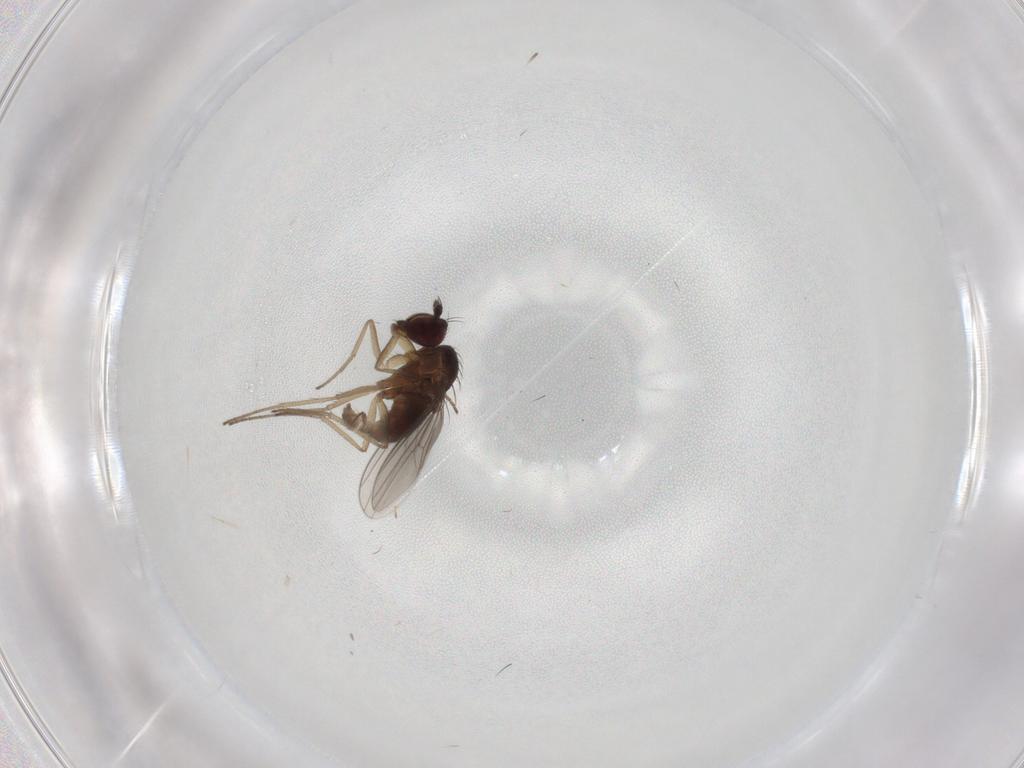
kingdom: Animalia
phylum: Arthropoda
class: Insecta
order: Diptera
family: Dolichopodidae
